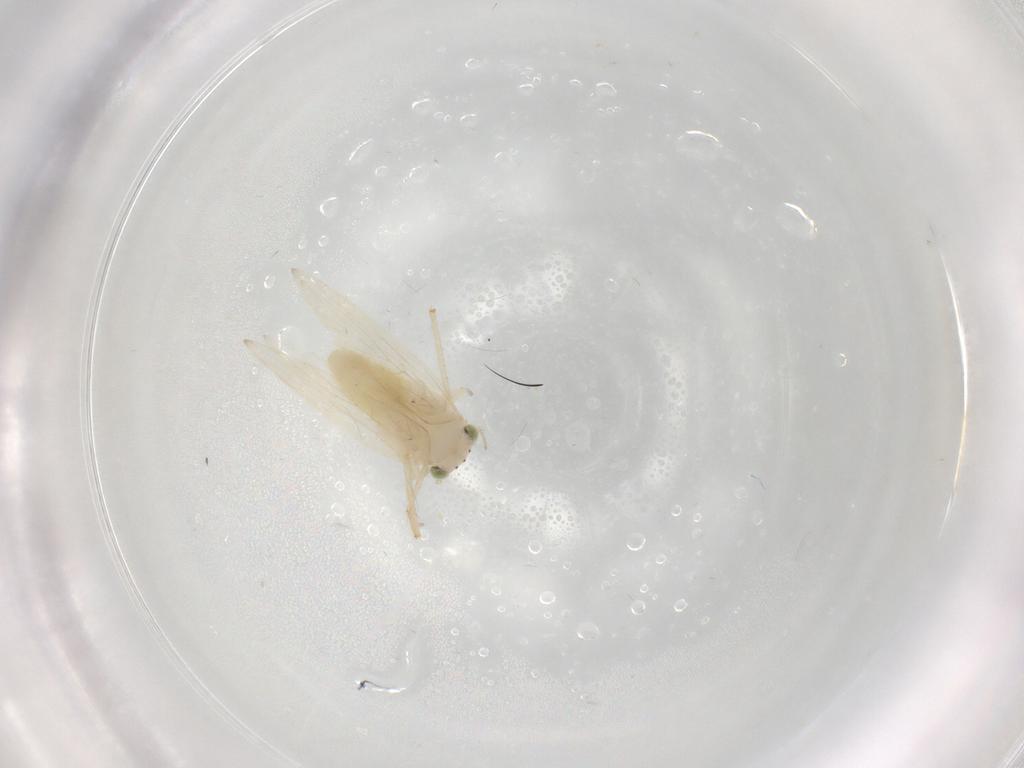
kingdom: Animalia
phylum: Arthropoda
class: Insecta
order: Psocodea
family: Lepidopsocidae
